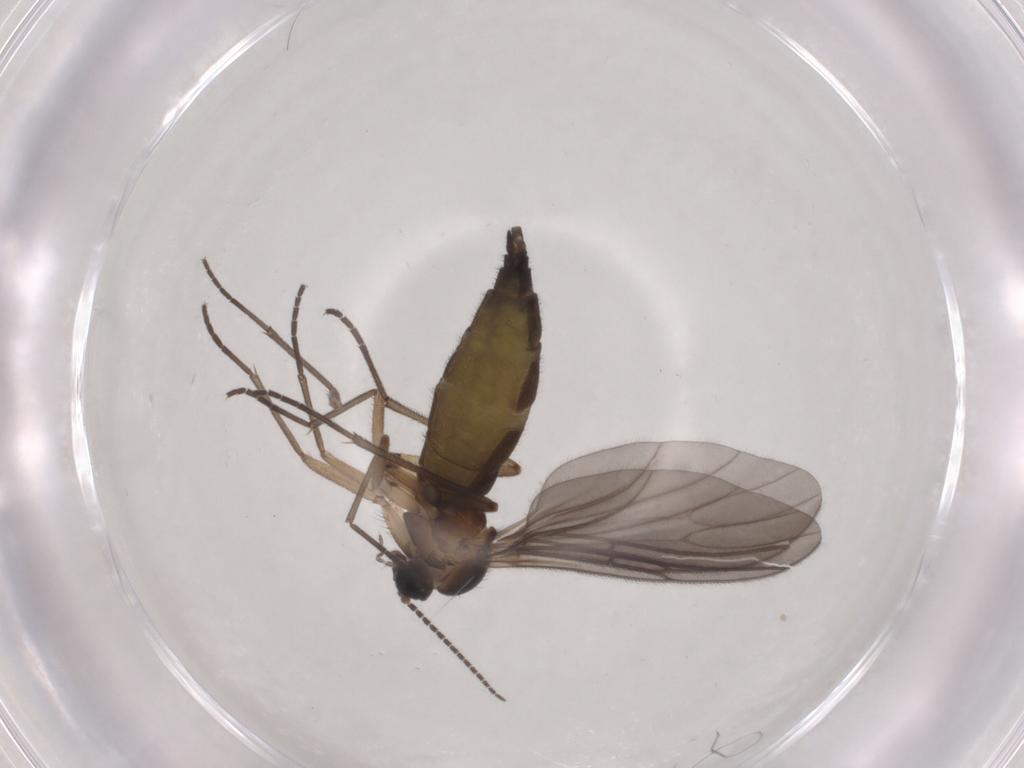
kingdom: Animalia
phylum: Arthropoda
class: Insecta
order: Diptera
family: Sciaridae
